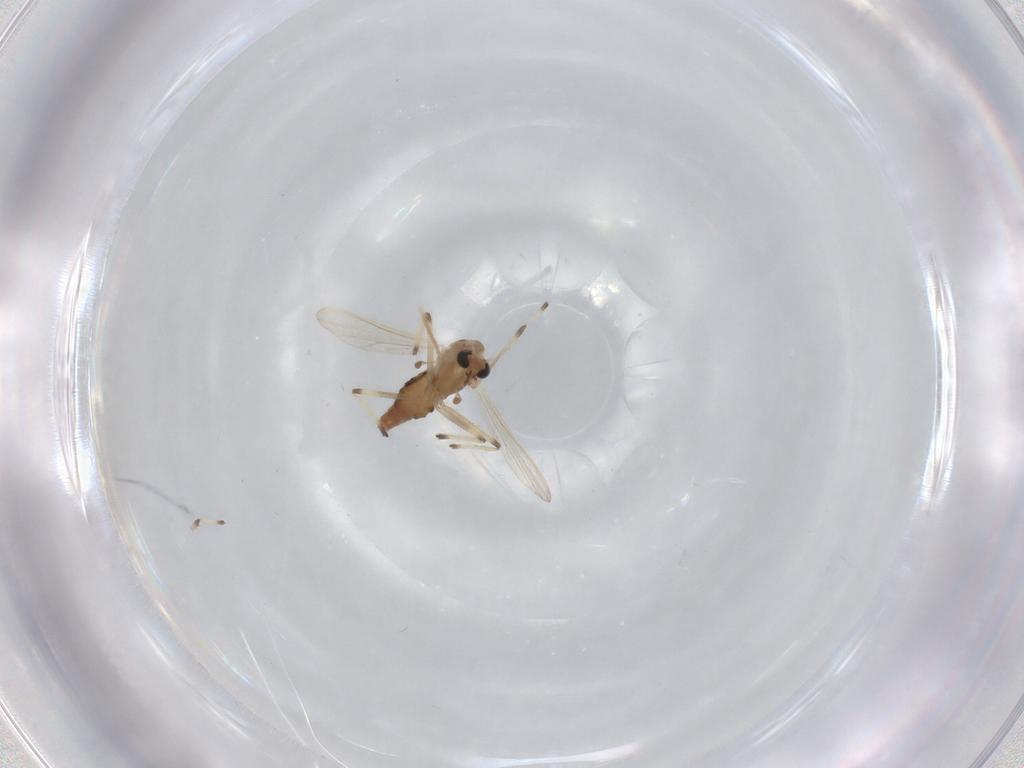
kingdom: Animalia
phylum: Arthropoda
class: Insecta
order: Diptera
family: Chironomidae
